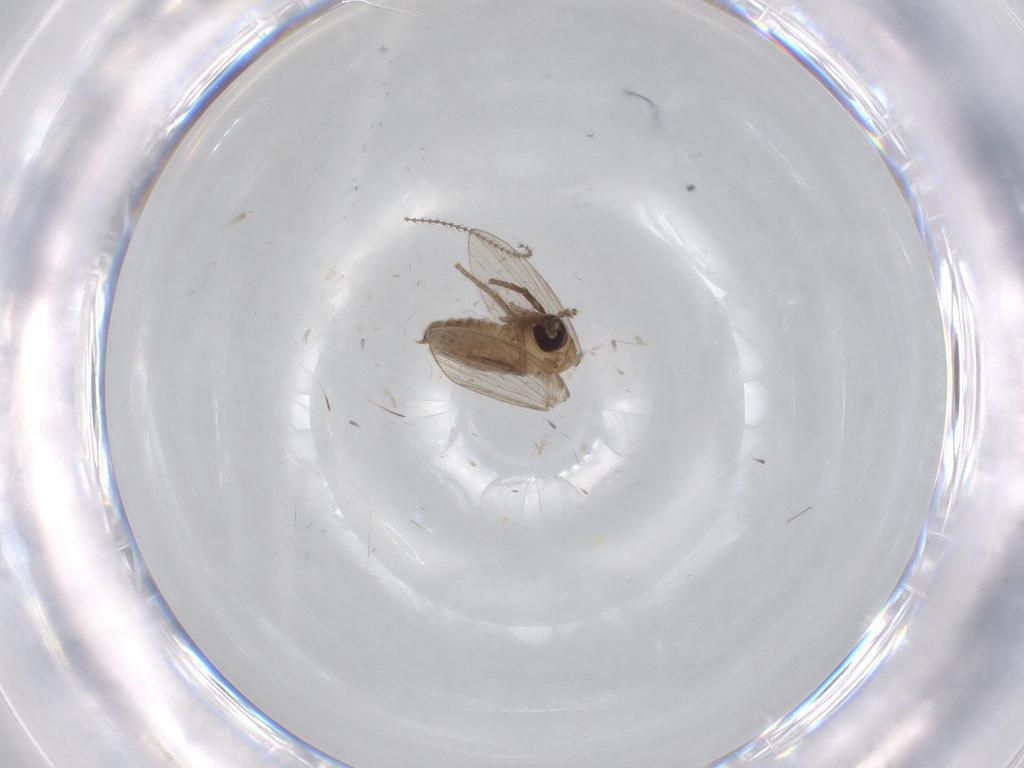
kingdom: Animalia
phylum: Arthropoda
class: Insecta
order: Diptera
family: Psychodidae
